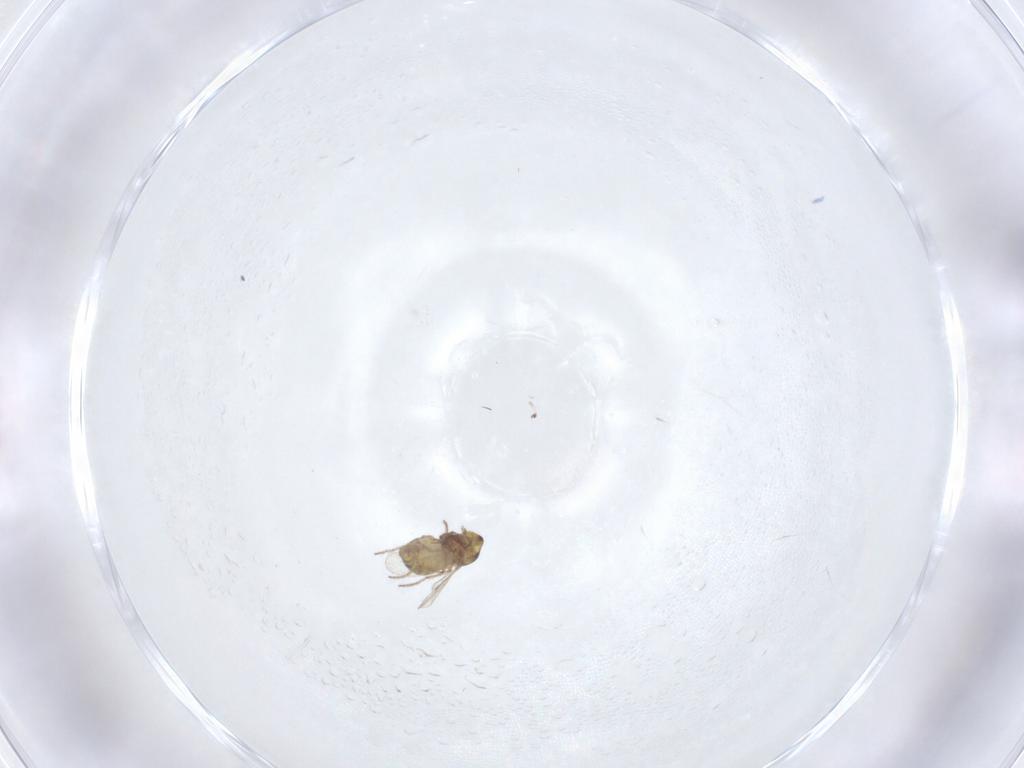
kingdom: Animalia
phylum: Arthropoda
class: Insecta
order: Diptera
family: Ceratopogonidae
